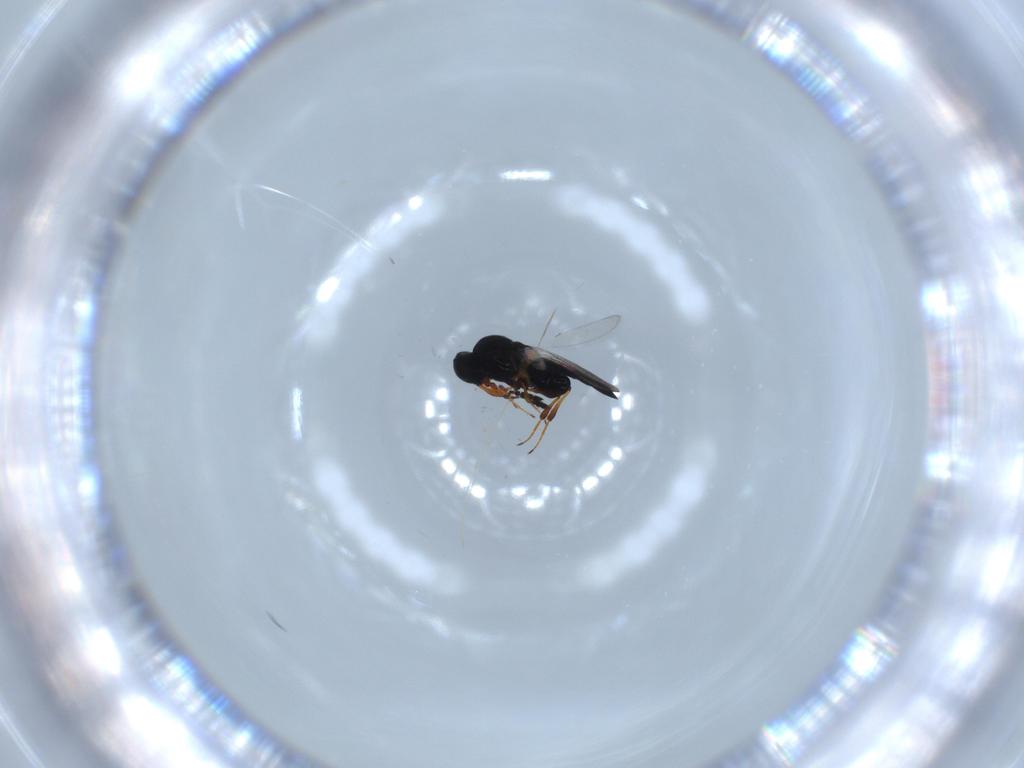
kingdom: Animalia
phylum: Arthropoda
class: Insecta
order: Hymenoptera
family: Platygastridae
